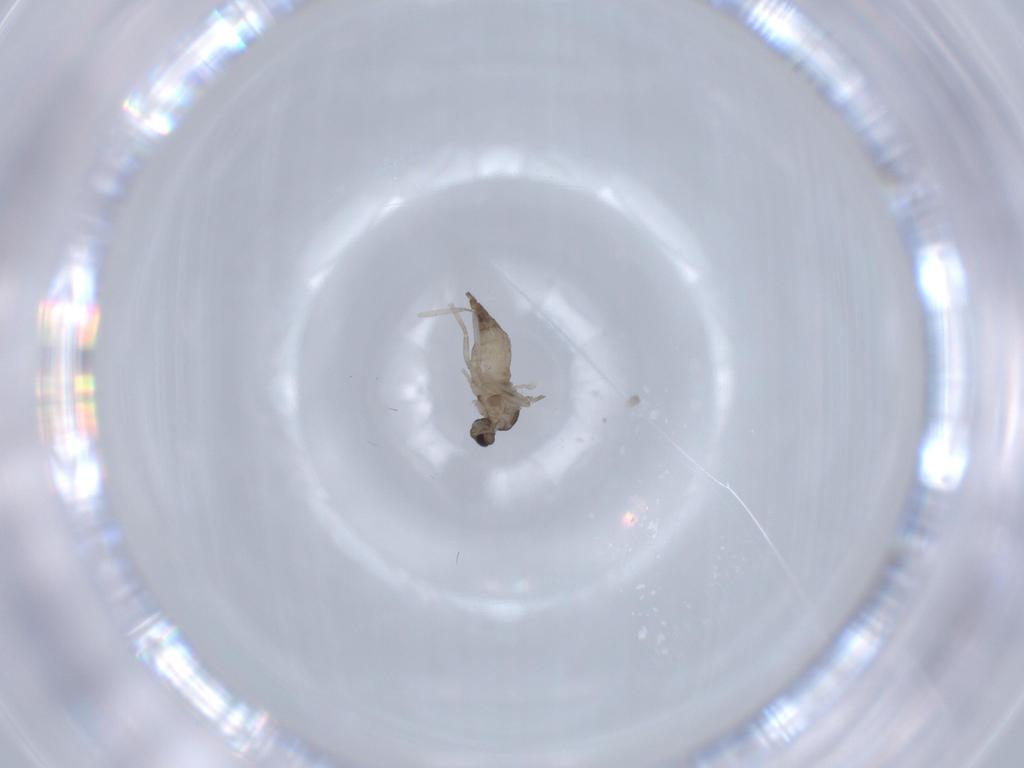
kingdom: Animalia
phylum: Arthropoda
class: Insecta
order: Diptera
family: Cecidomyiidae
